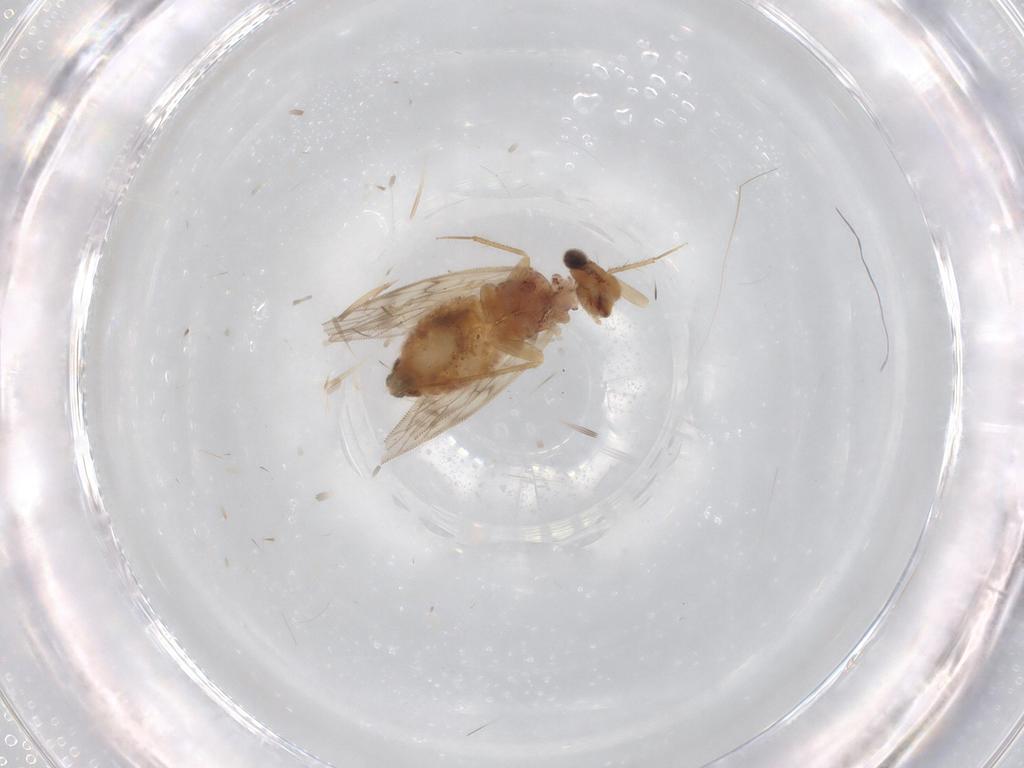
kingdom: Animalia
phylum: Arthropoda
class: Insecta
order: Psocodea
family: Lepidopsocidae
